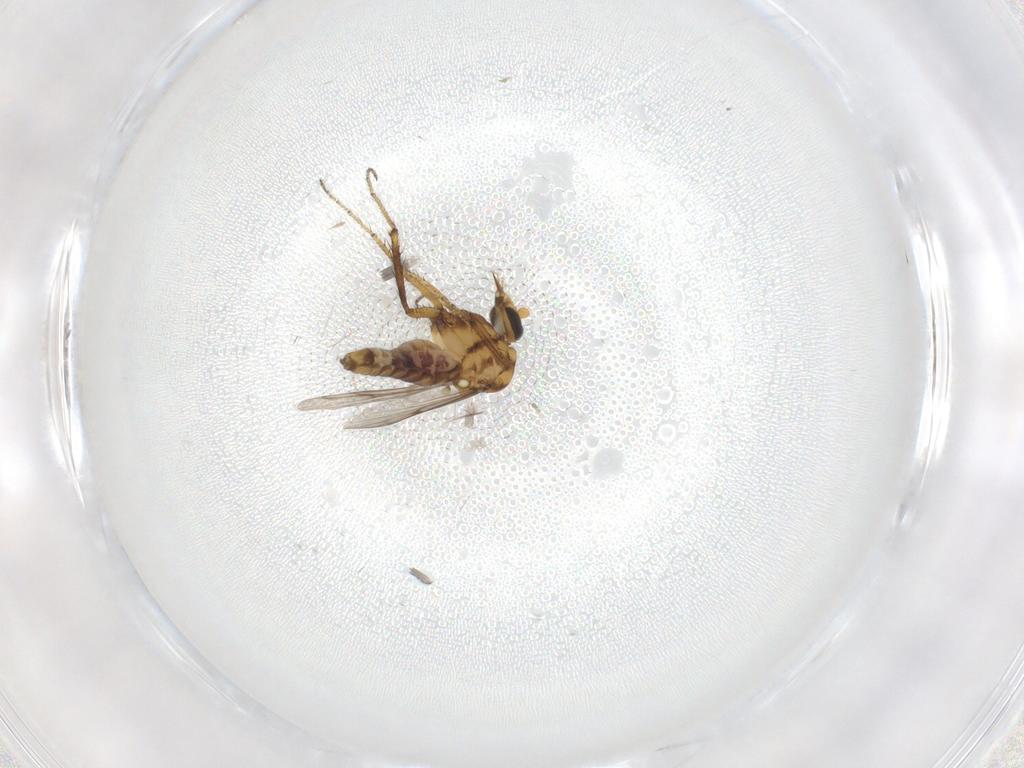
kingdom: Animalia
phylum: Arthropoda
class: Insecta
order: Diptera
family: Ceratopogonidae
